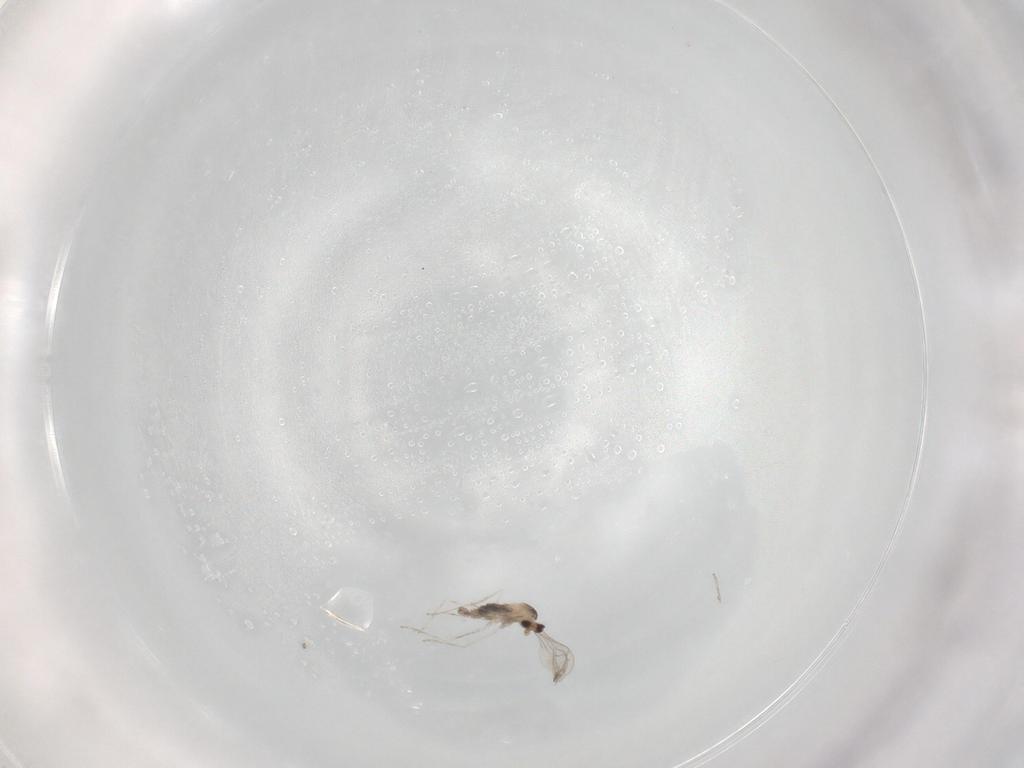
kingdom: Animalia
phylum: Arthropoda
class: Insecta
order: Diptera
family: Cecidomyiidae
